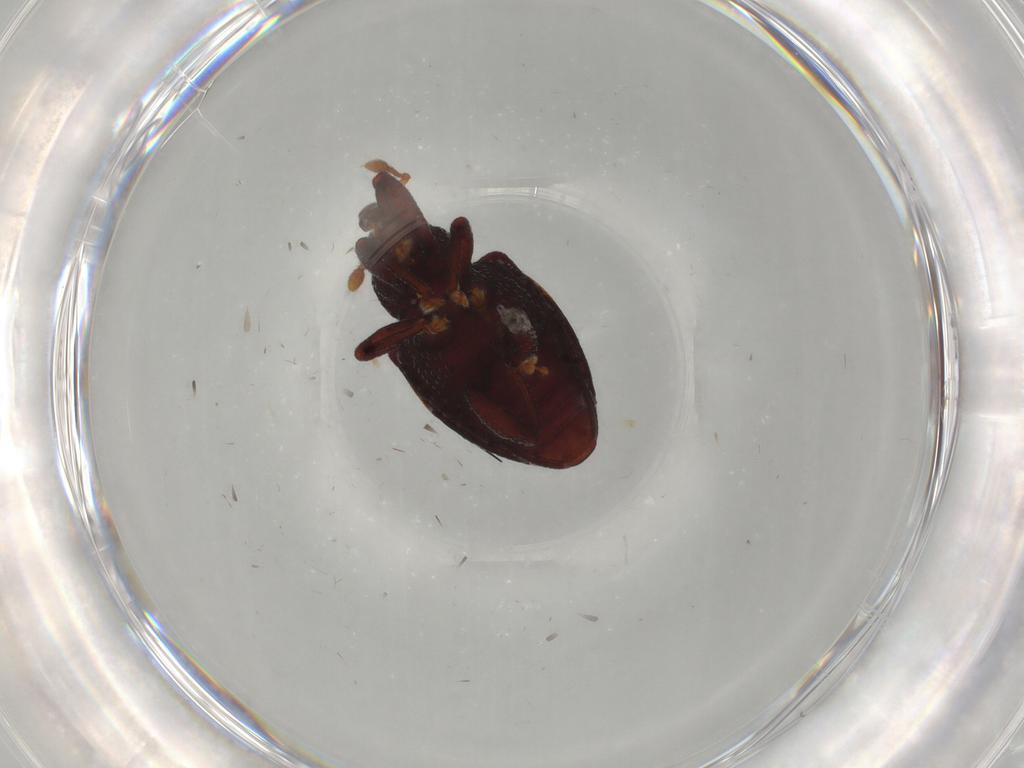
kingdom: Animalia
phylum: Arthropoda
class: Insecta
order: Coleoptera
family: Curculionidae
